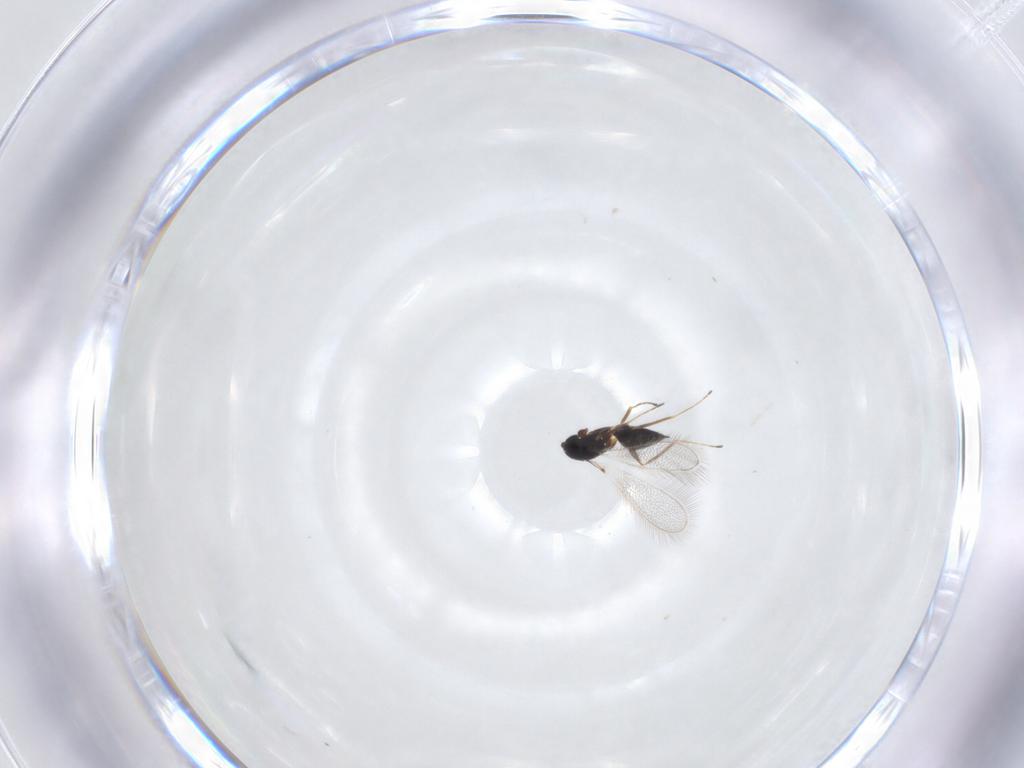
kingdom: Animalia
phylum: Arthropoda
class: Insecta
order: Hymenoptera
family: Mymaridae
